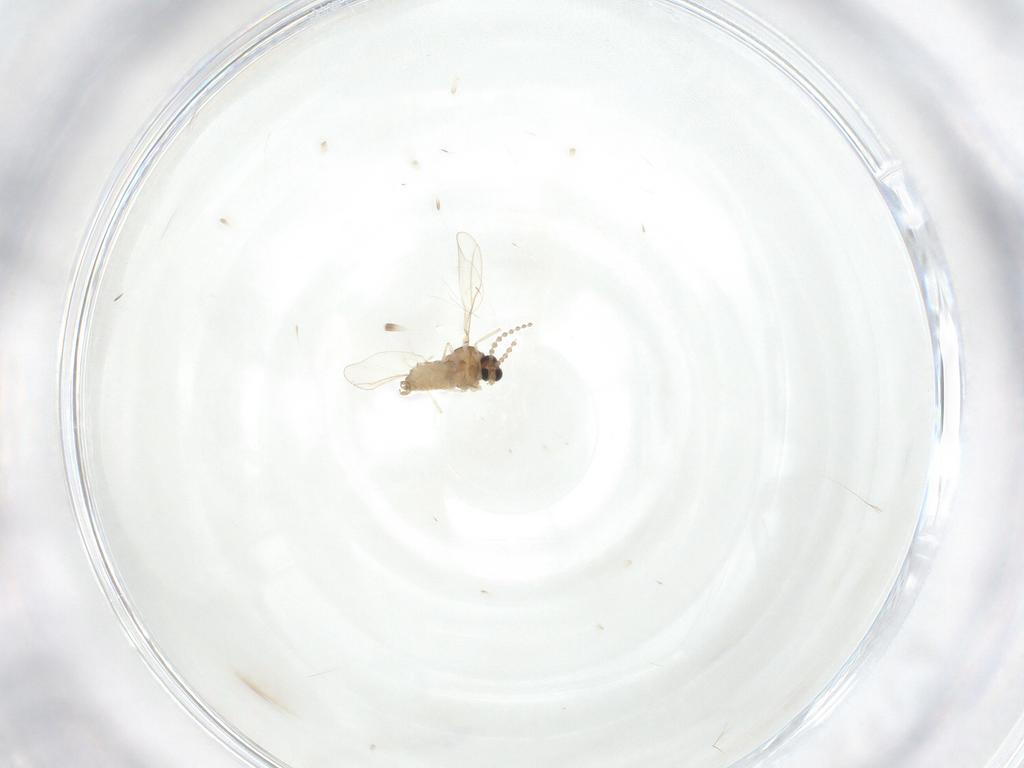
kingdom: Animalia
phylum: Arthropoda
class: Insecta
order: Diptera
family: Cecidomyiidae
